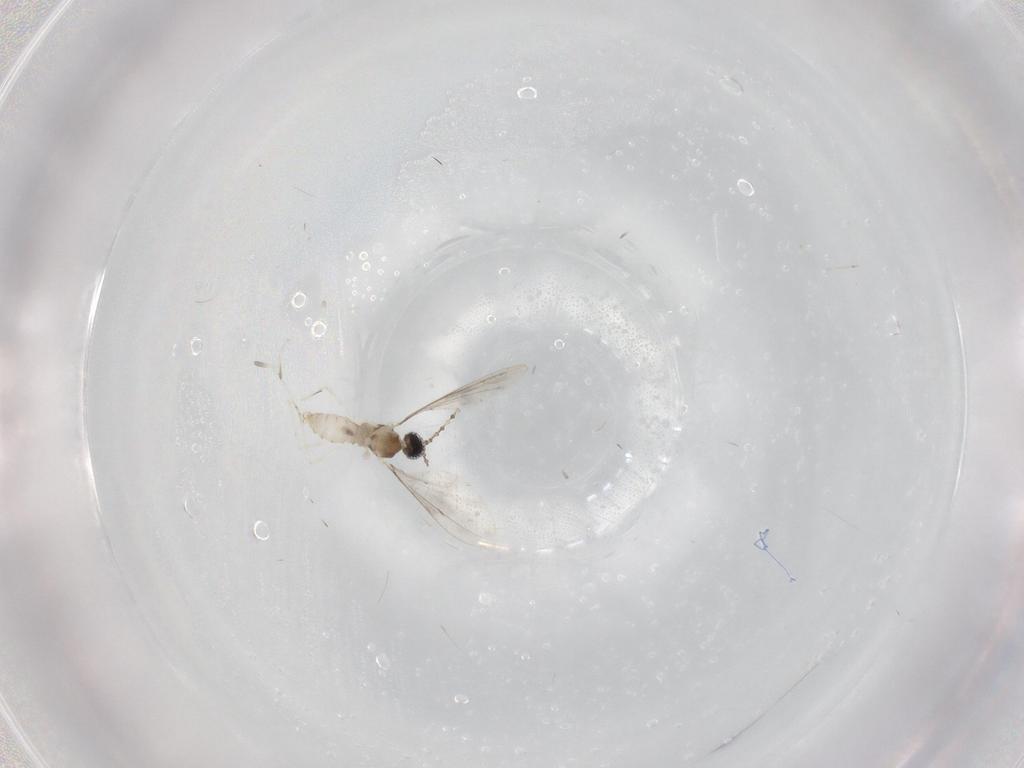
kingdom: Animalia
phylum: Arthropoda
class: Insecta
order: Diptera
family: Cecidomyiidae
